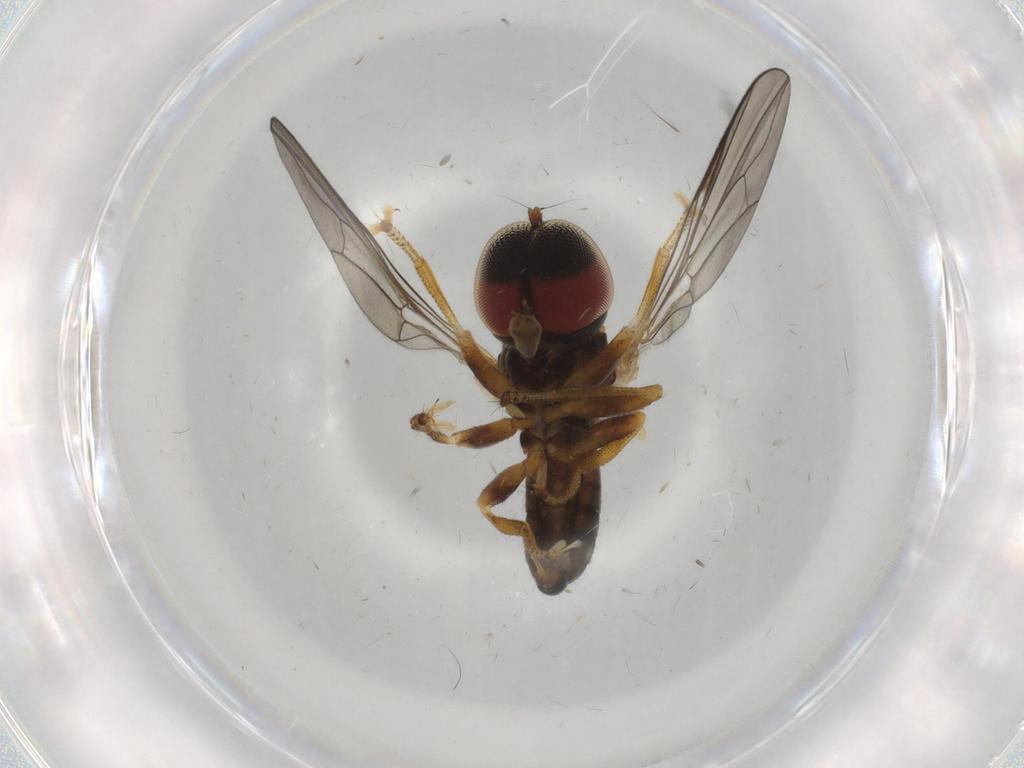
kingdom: Animalia
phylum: Arthropoda
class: Insecta
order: Diptera
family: Pipunculidae
